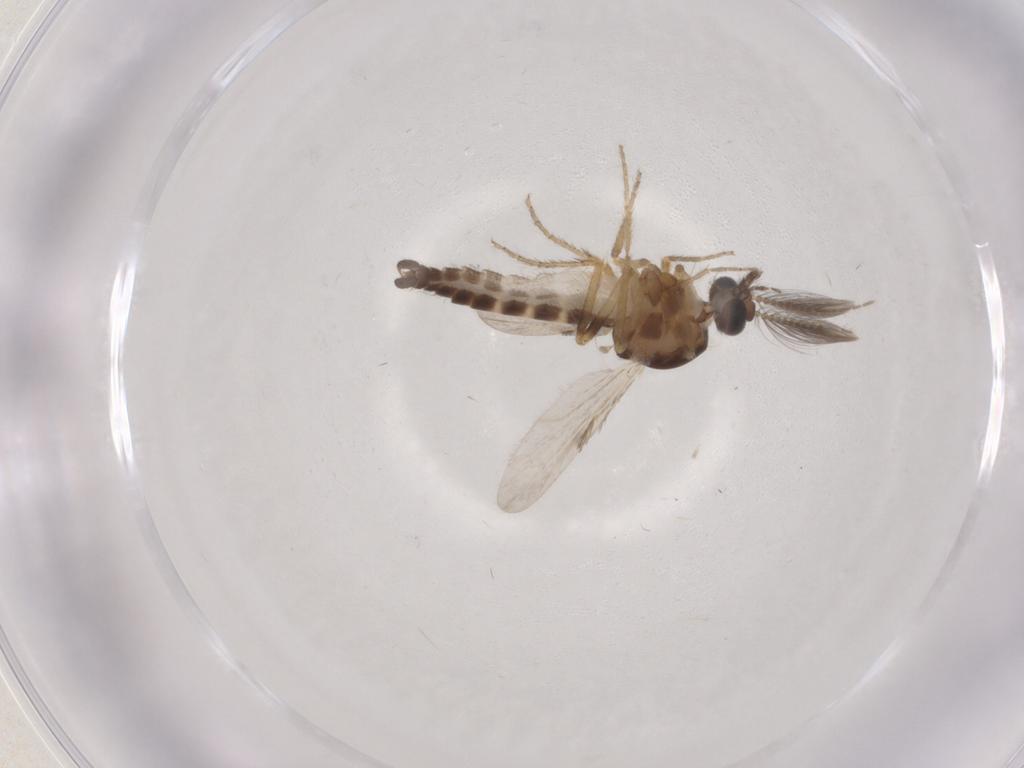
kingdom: Animalia
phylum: Arthropoda
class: Insecta
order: Diptera
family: Ceratopogonidae
